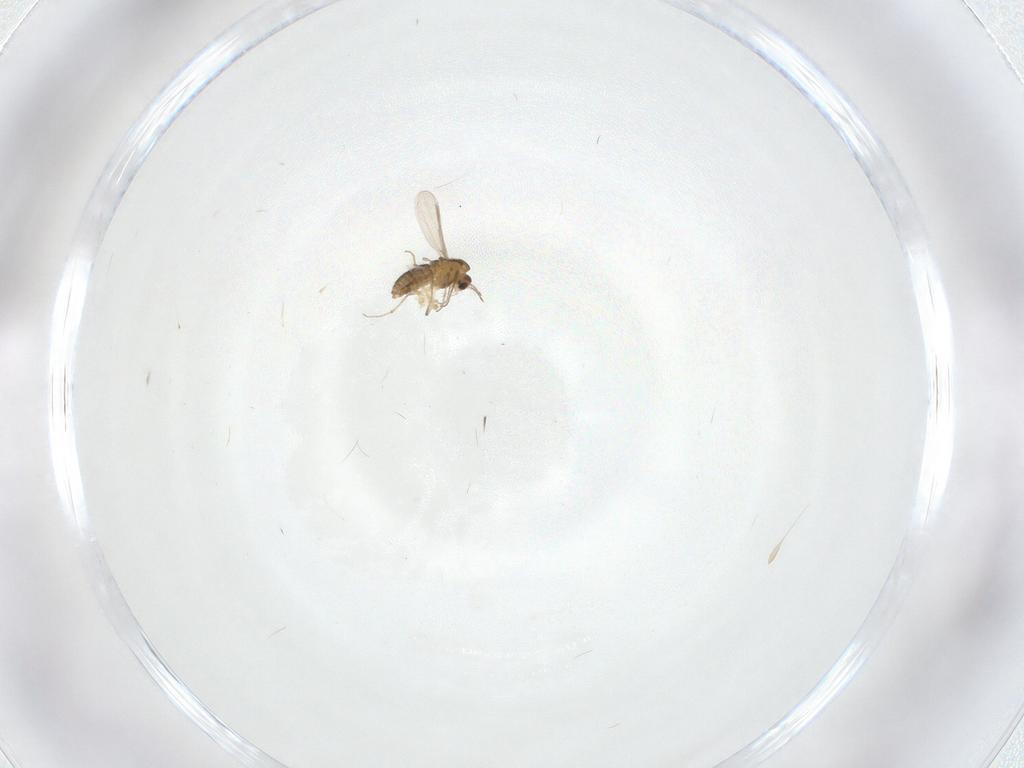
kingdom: Animalia
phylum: Arthropoda
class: Insecta
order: Diptera
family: Chironomidae
